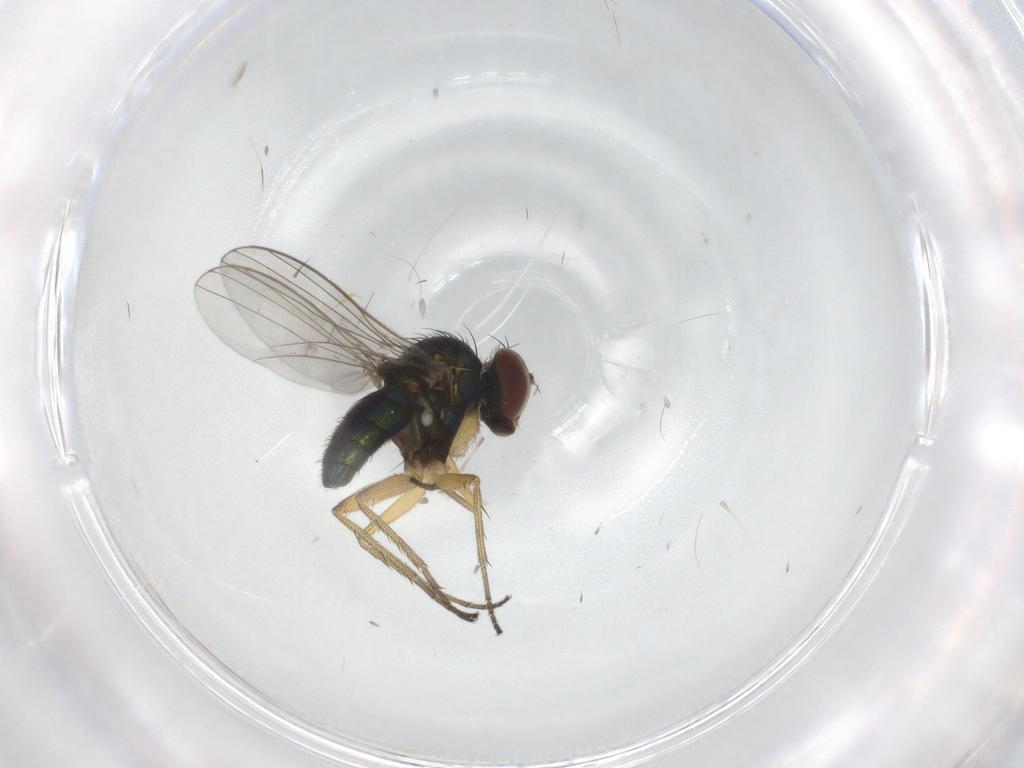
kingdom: Animalia
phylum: Arthropoda
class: Insecta
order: Diptera
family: Dolichopodidae
